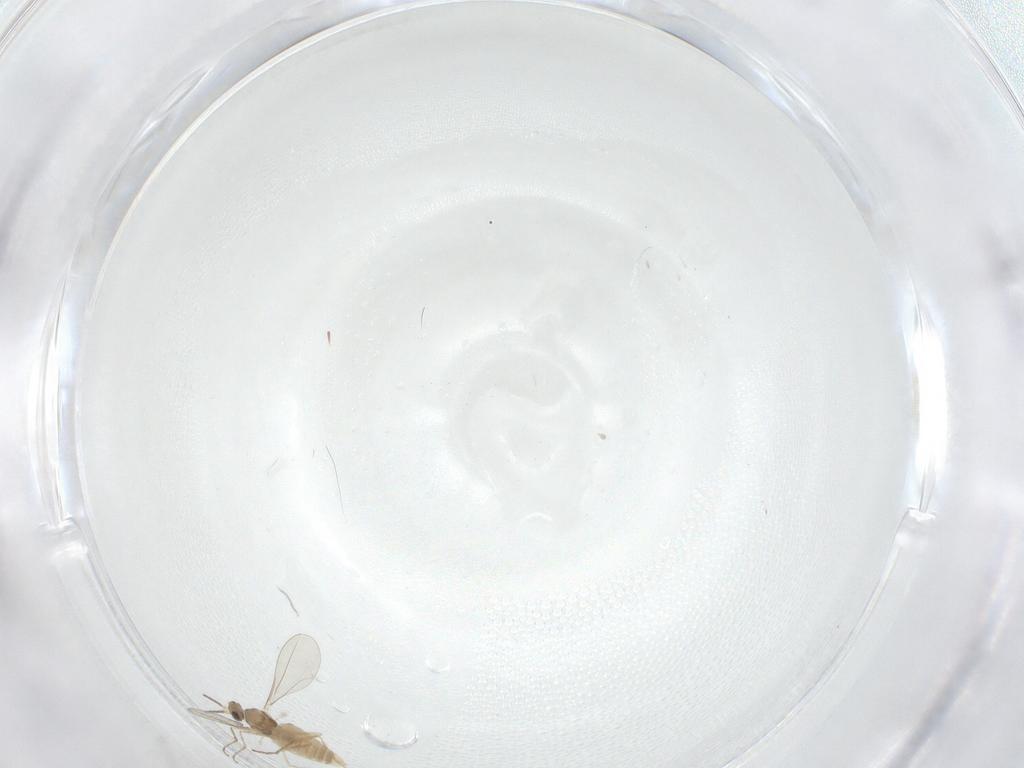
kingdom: Animalia
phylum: Arthropoda
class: Insecta
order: Diptera
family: Ceratopogonidae
